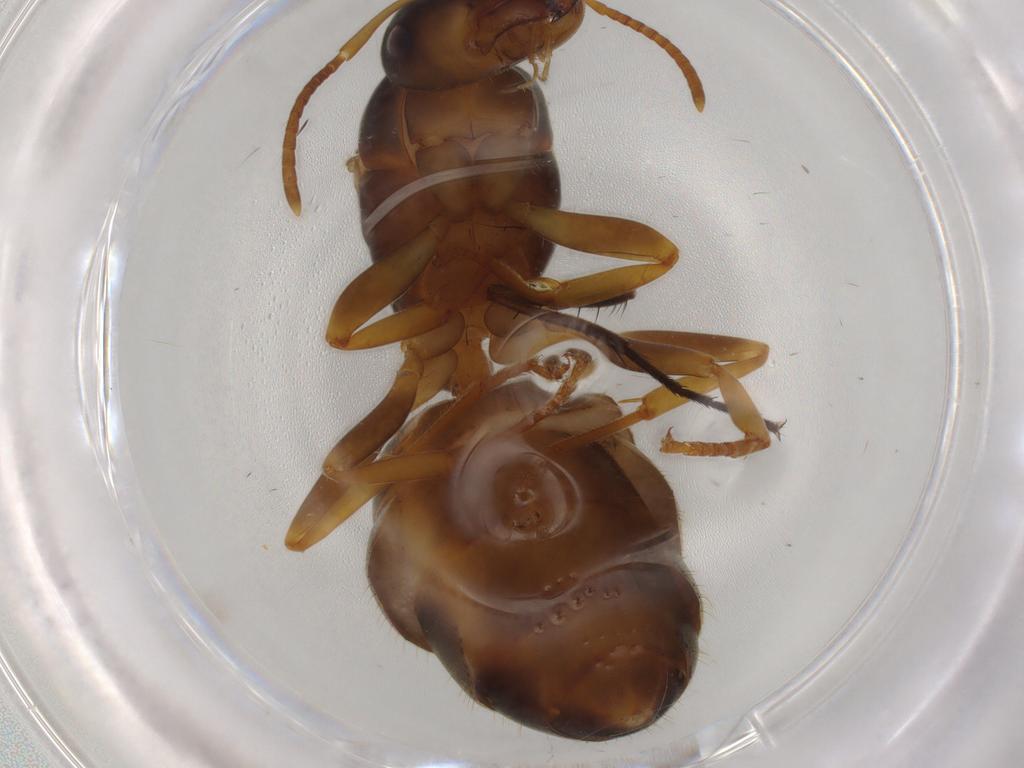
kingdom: Animalia
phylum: Arthropoda
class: Insecta
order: Hymenoptera
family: Formicidae
